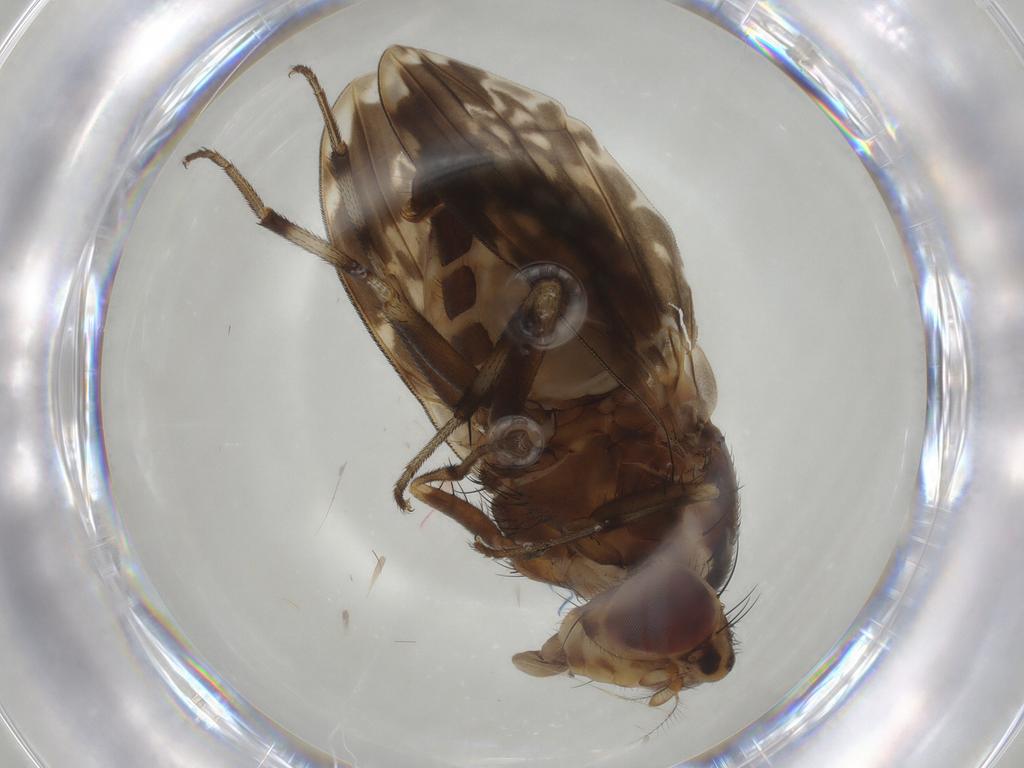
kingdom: Animalia
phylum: Arthropoda
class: Insecta
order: Diptera
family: Lauxaniidae
